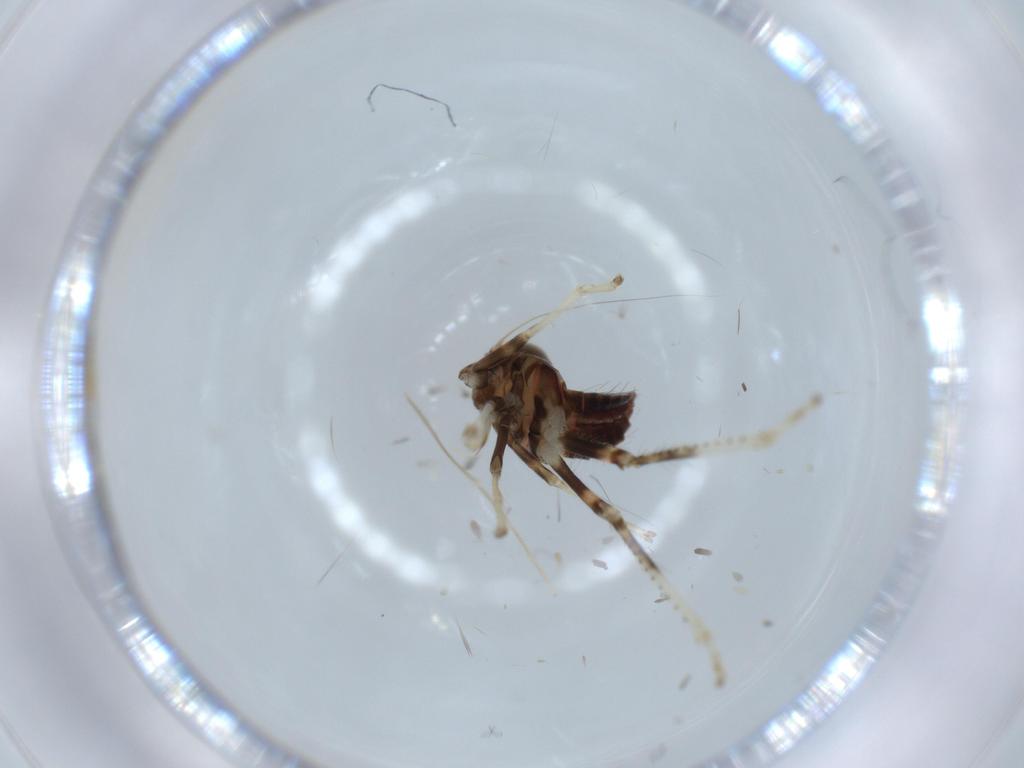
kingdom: Animalia
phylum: Arthropoda
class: Insecta
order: Hemiptera
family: Cicadellidae
